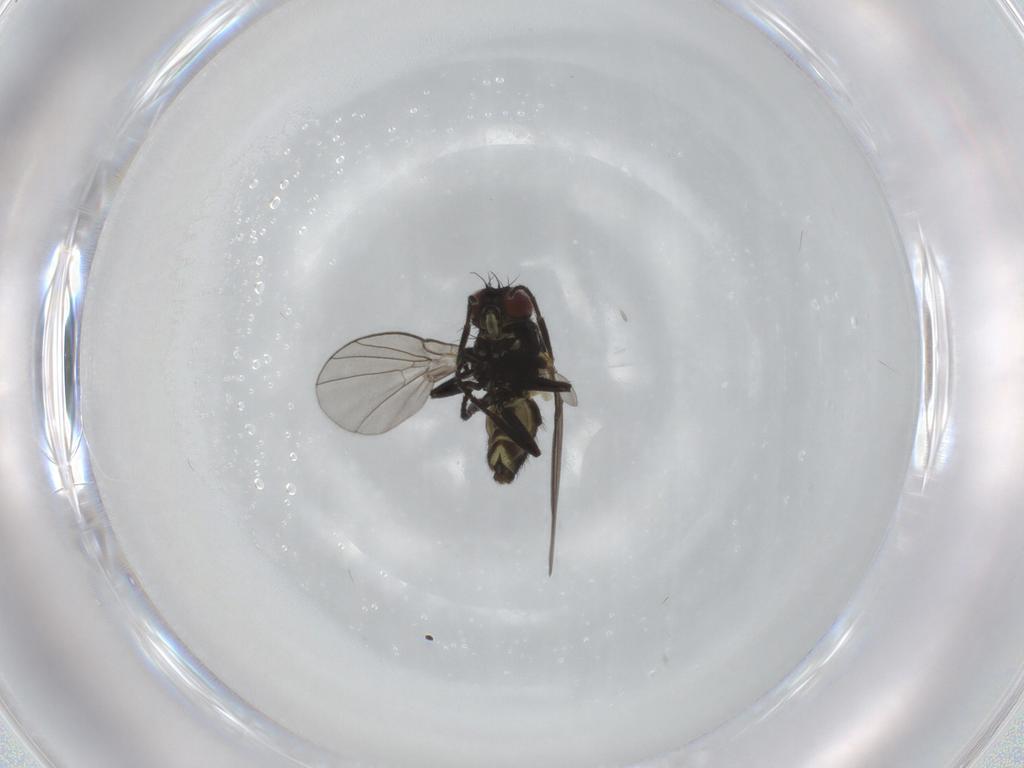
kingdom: Animalia
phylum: Arthropoda
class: Insecta
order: Diptera
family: Agromyzidae
